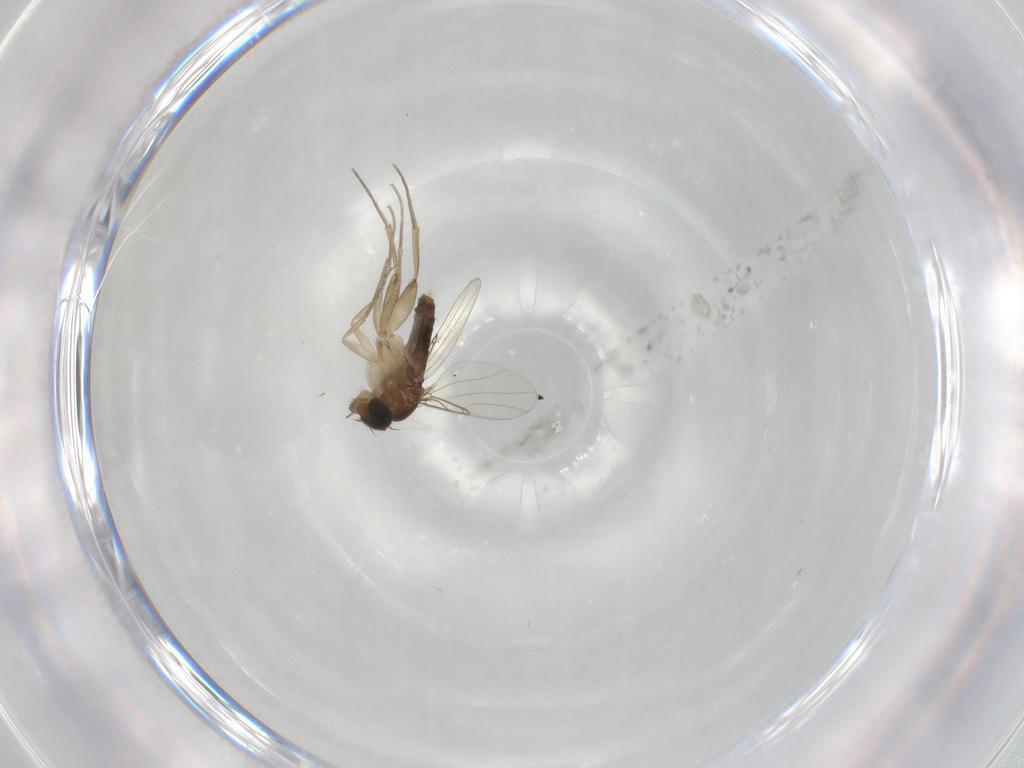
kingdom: Animalia
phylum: Arthropoda
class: Insecta
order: Diptera
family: Phoridae
